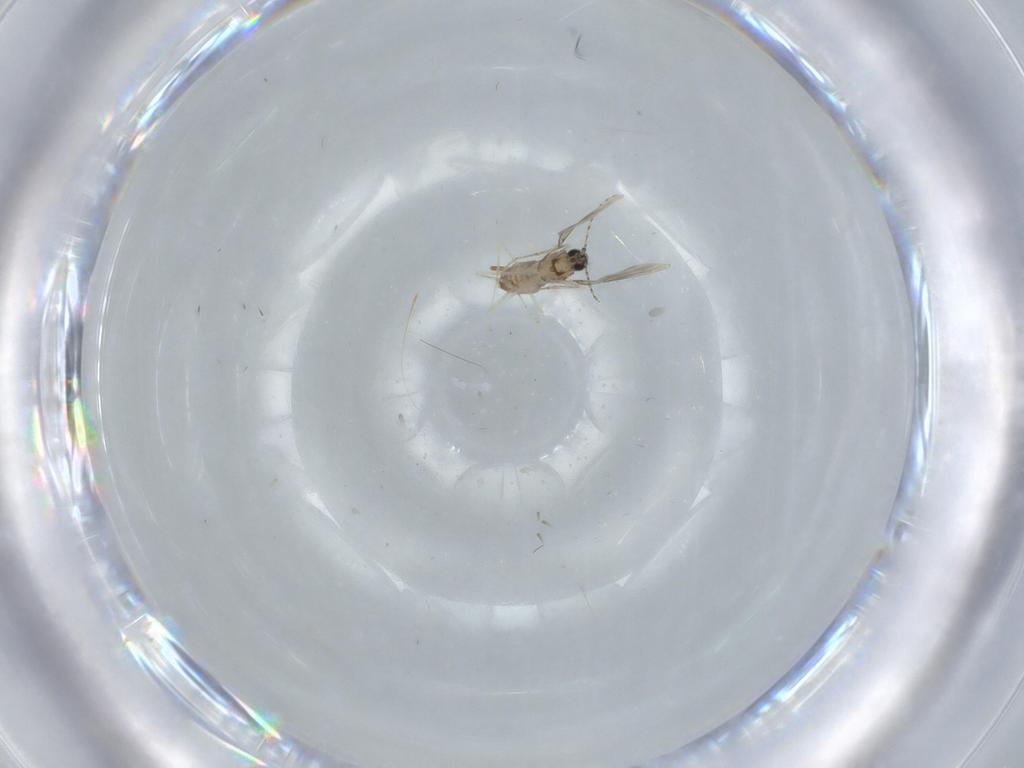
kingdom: Animalia
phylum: Arthropoda
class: Insecta
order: Diptera
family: Cecidomyiidae
